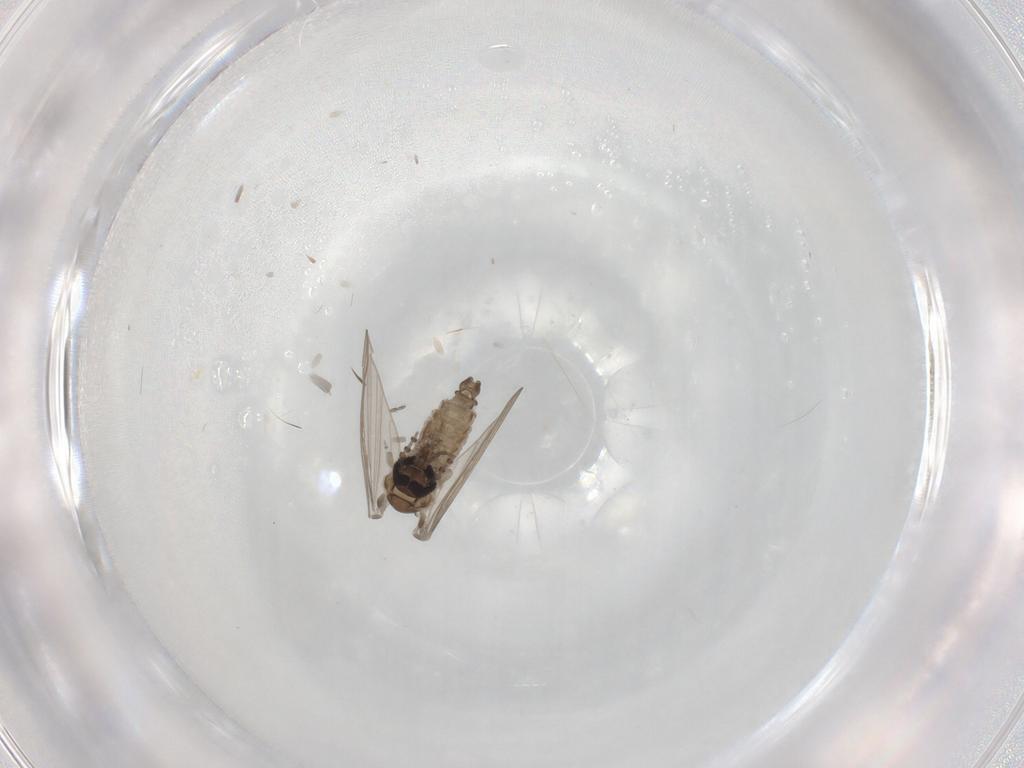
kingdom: Animalia
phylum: Arthropoda
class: Insecta
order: Diptera
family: Psychodidae
